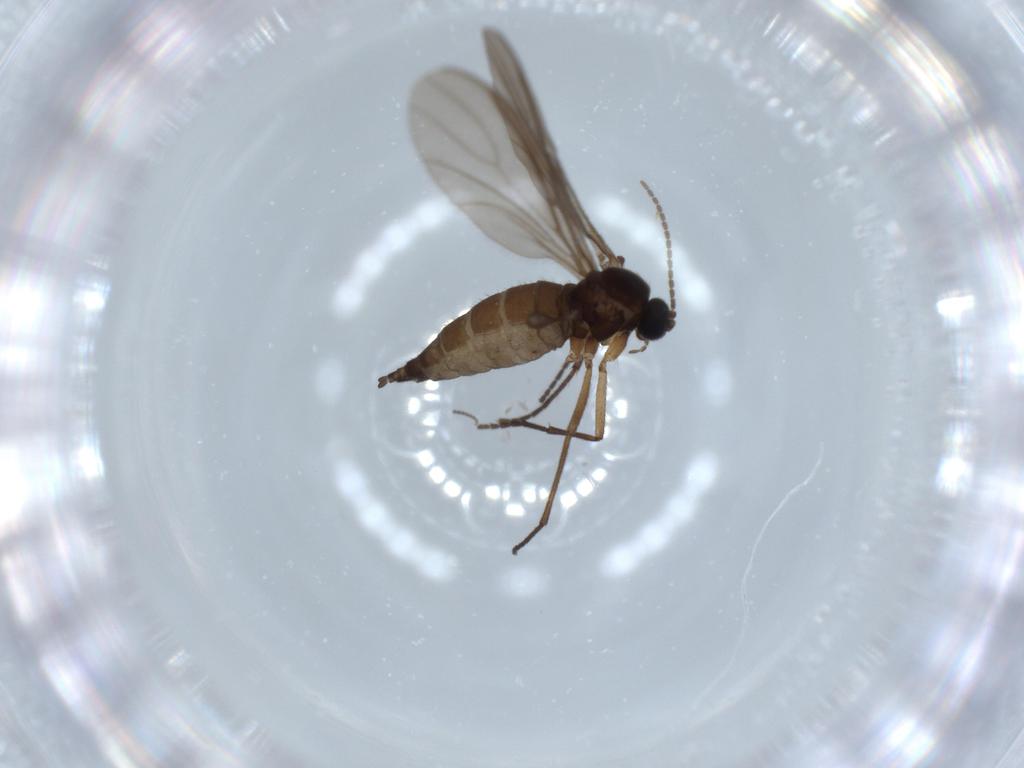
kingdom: Animalia
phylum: Arthropoda
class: Insecta
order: Diptera
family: Sciaridae
